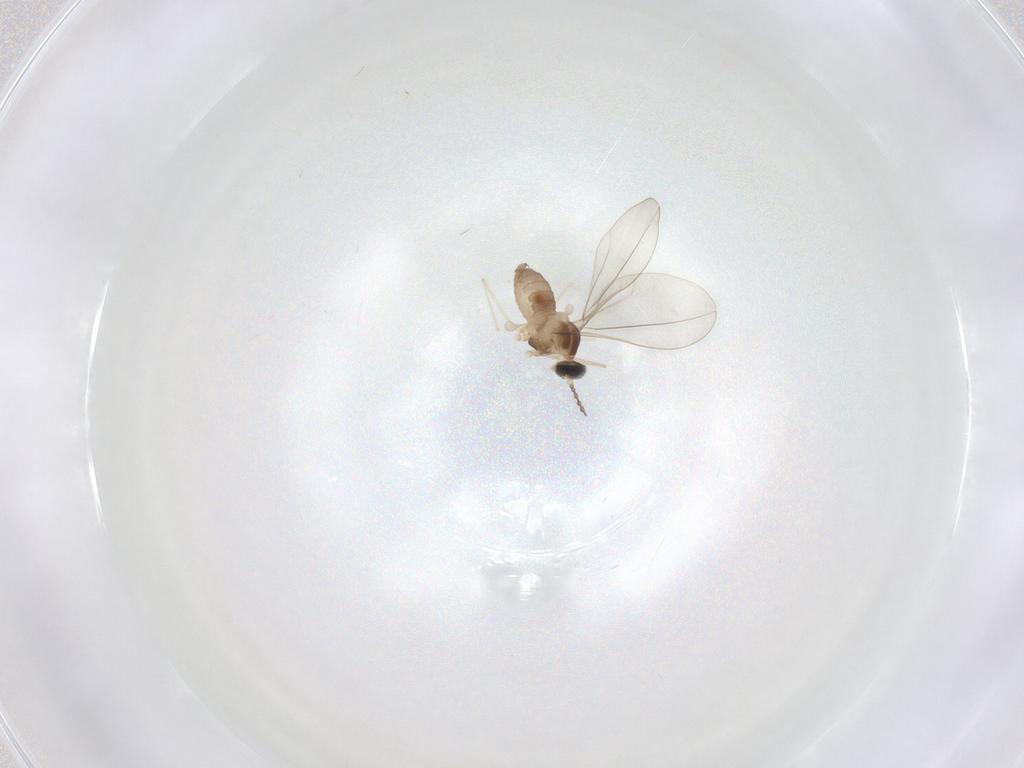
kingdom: Animalia
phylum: Arthropoda
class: Insecta
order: Diptera
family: Cecidomyiidae
